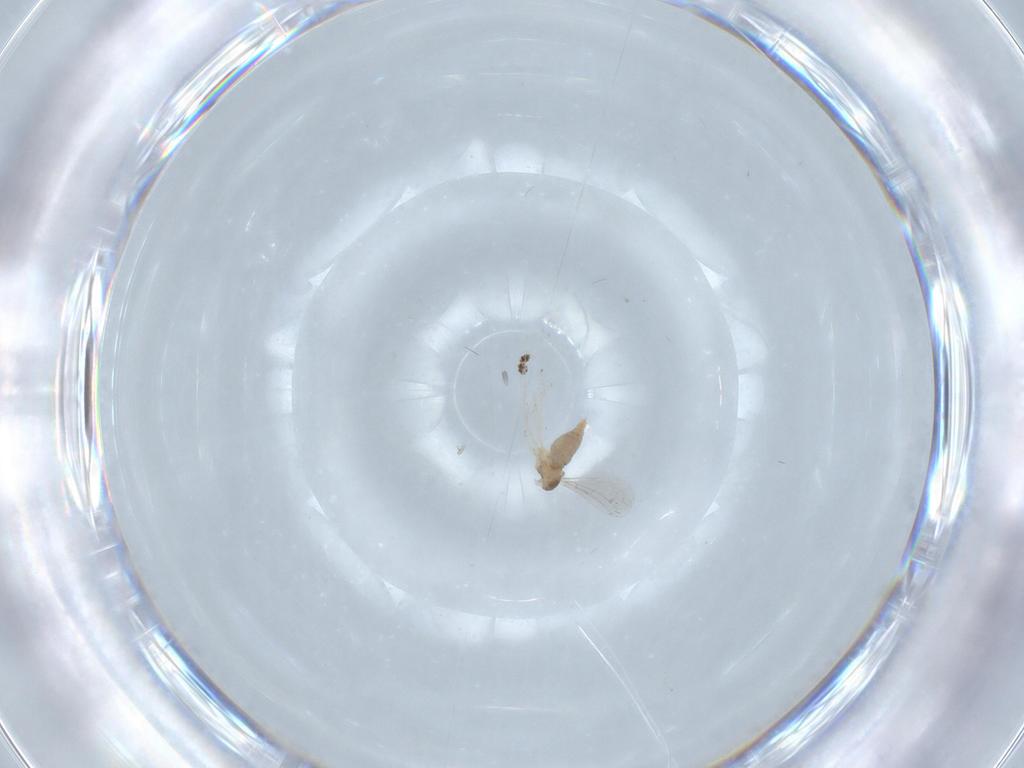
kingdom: Animalia
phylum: Arthropoda
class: Insecta
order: Diptera
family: Cecidomyiidae
